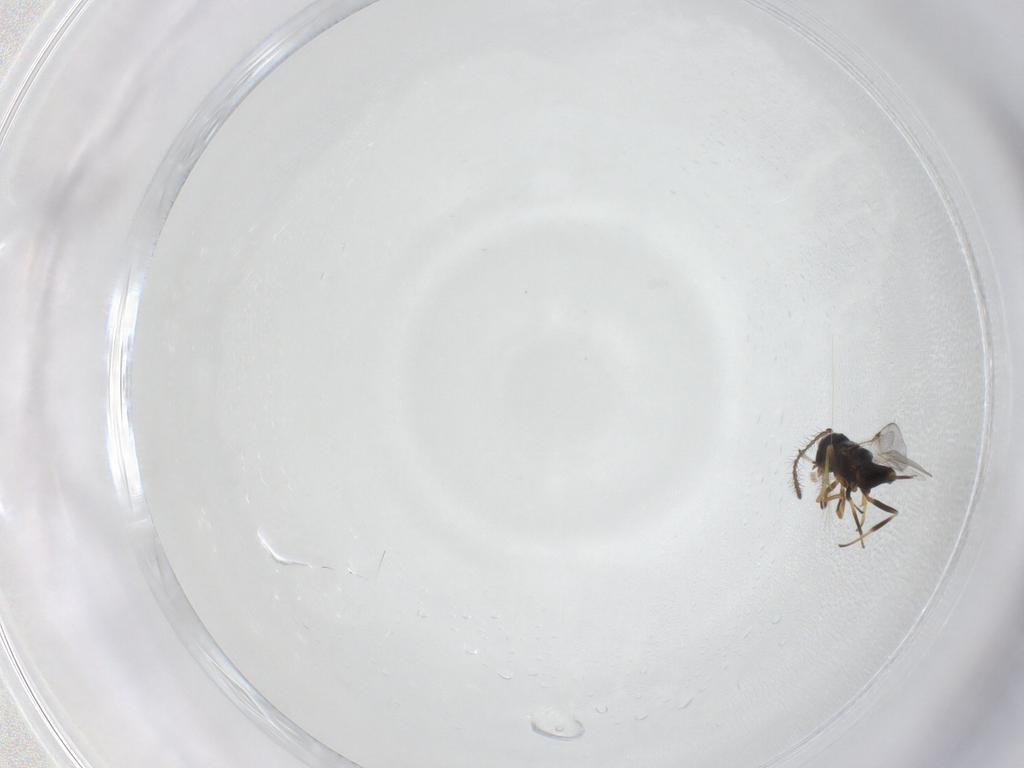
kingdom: Animalia
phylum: Arthropoda
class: Insecta
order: Hymenoptera
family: Encyrtidae
